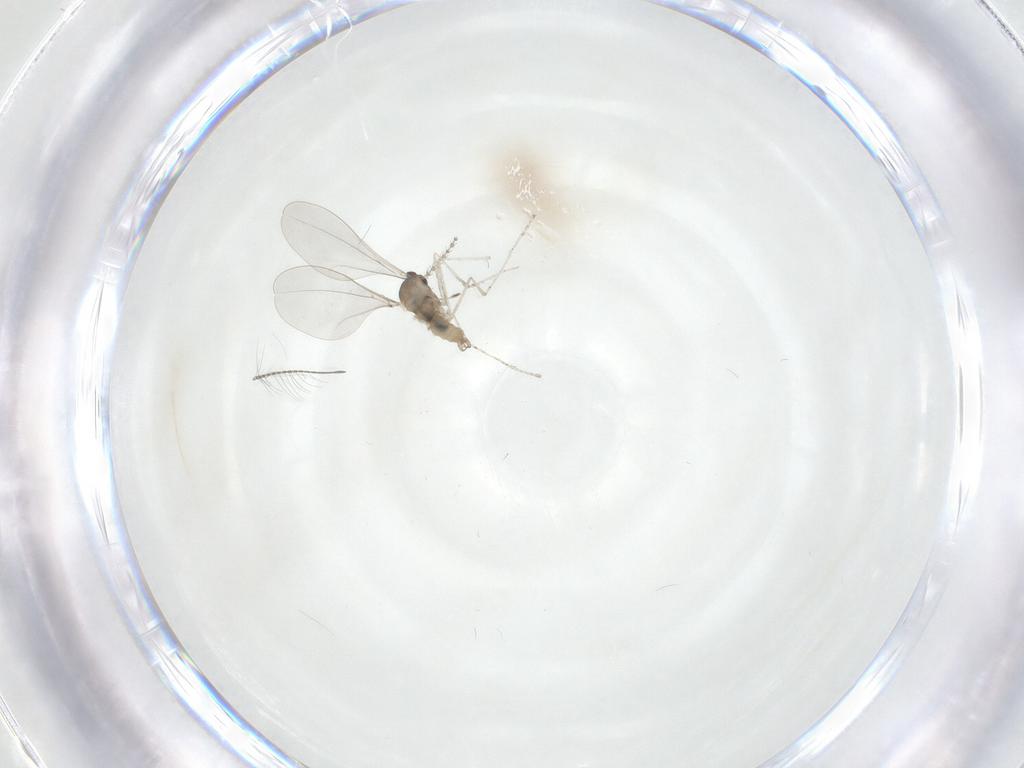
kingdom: Animalia
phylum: Arthropoda
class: Insecta
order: Diptera
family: Cecidomyiidae
